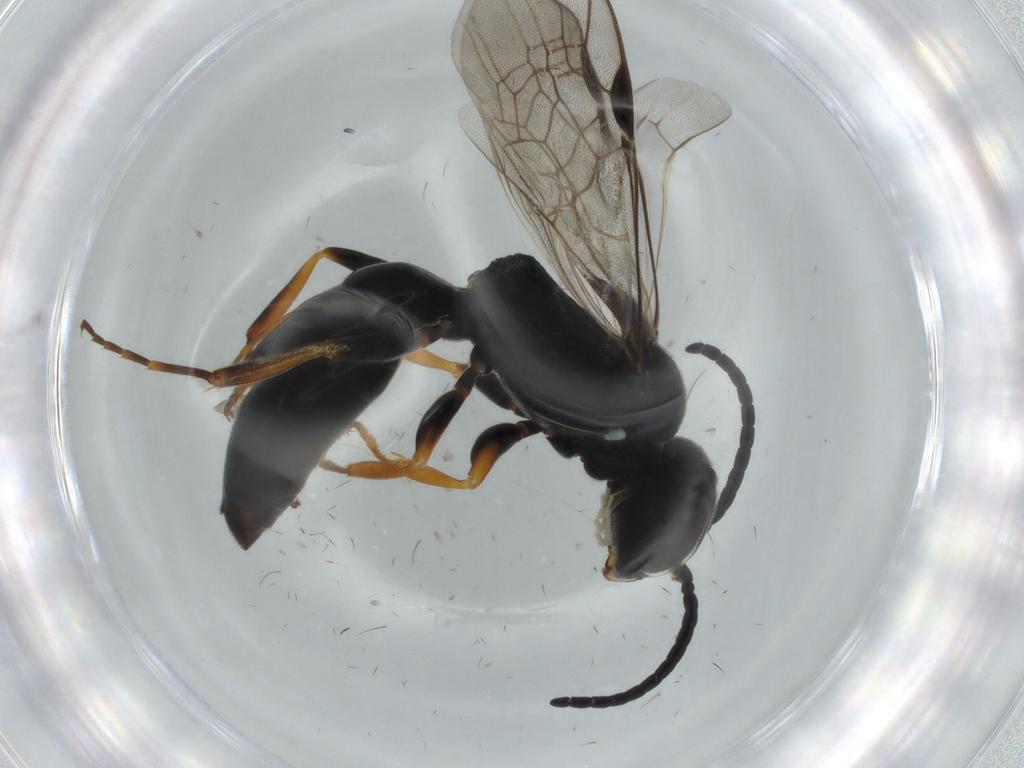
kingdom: Animalia
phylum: Arthropoda
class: Insecta
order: Hymenoptera
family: Crabronidae
